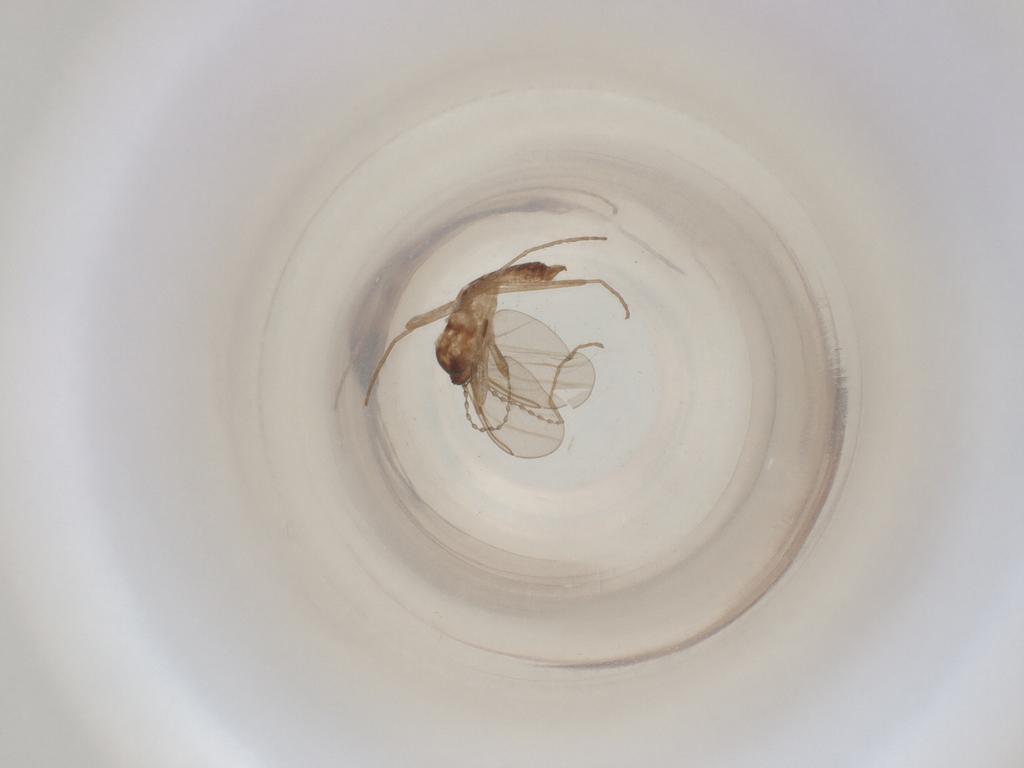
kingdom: Animalia
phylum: Arthropoda
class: Insecta
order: Diptera
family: Cecidomyiidae
